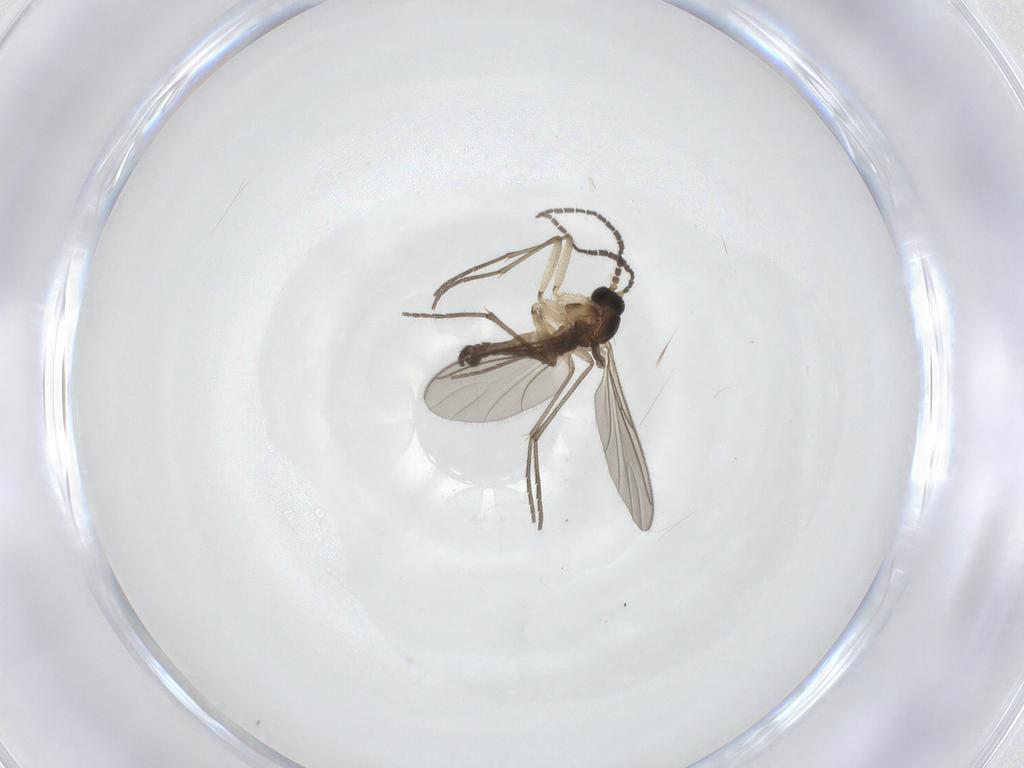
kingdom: Animalia
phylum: Arthropoda
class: Insecta
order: Diptera
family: Sciaridae
